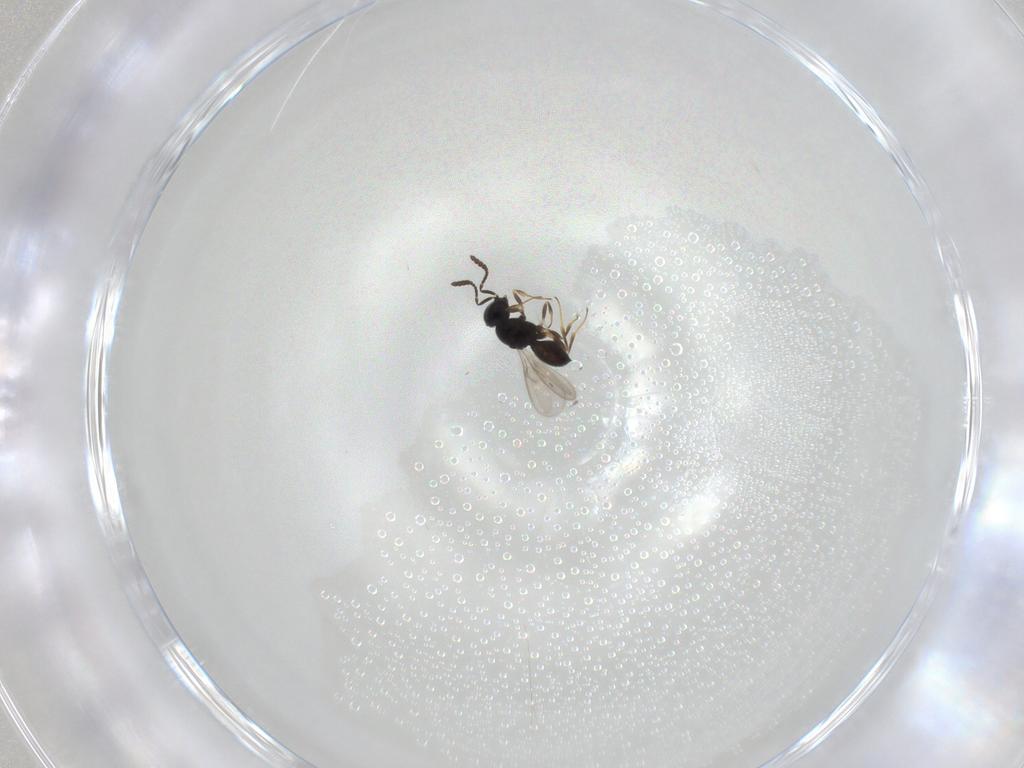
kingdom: Animalia
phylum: Arthropoda
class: Insecta
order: Hymenoptera
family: Scelionidae
